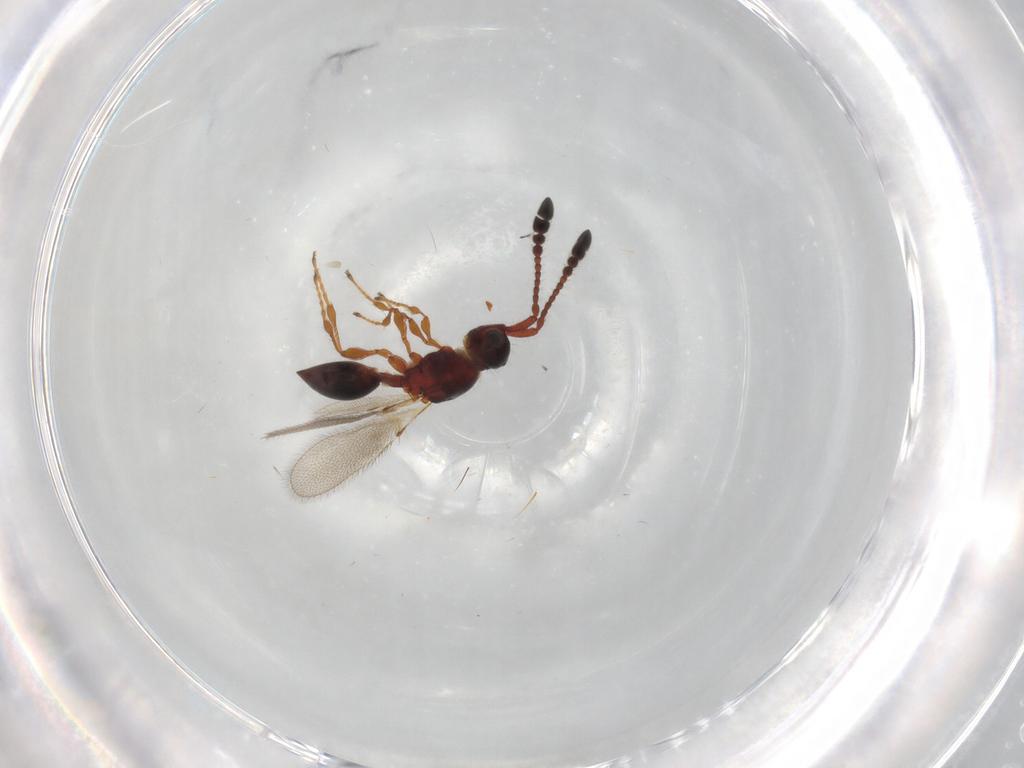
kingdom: Animalia
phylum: Arthropoda
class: Insecta
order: Hymenoptera
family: Diapriidae
